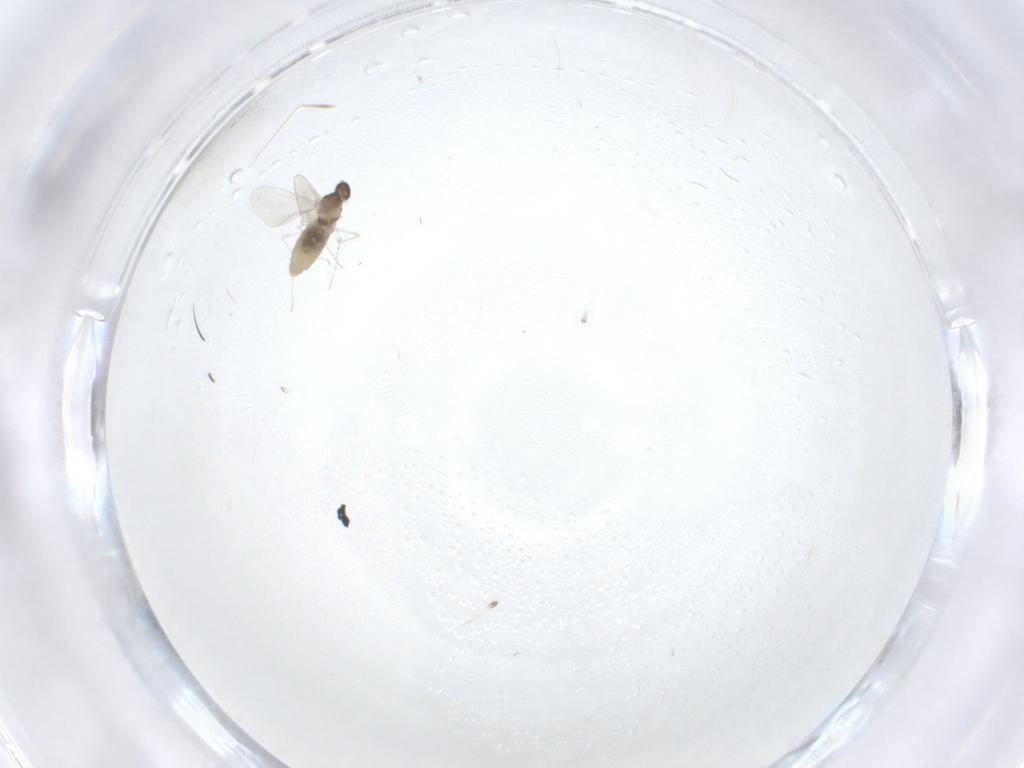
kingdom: Animalia
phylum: Arthropoda
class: Insecta
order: Diptera
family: Cecidomyiidae
